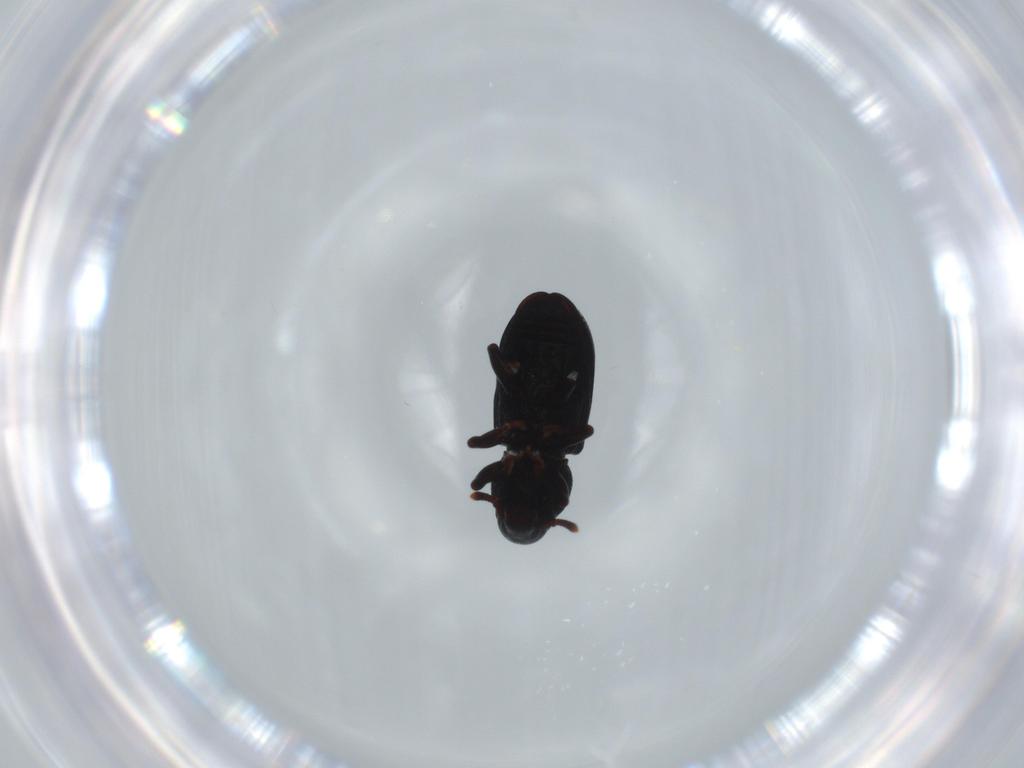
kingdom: Animalia
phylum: Arthropoda
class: Insecta
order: Coleoptera
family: Curculionidae
